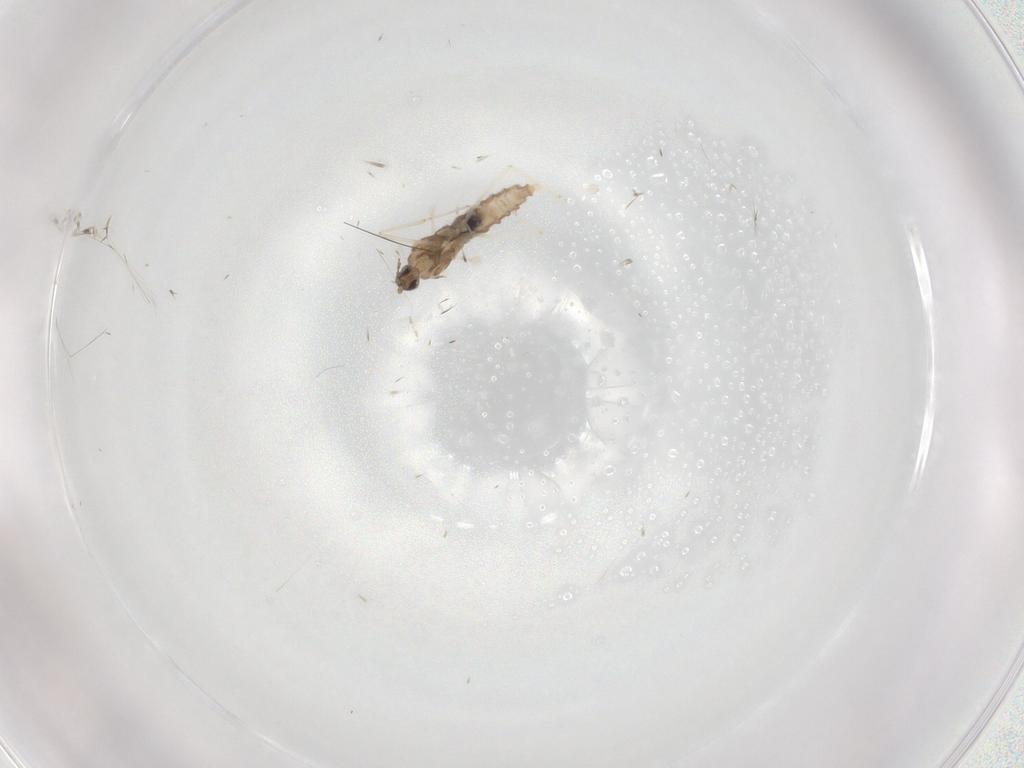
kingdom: Animalia
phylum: Arthropoda
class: Insecta
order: Diptera
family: Cecidomyiidae
